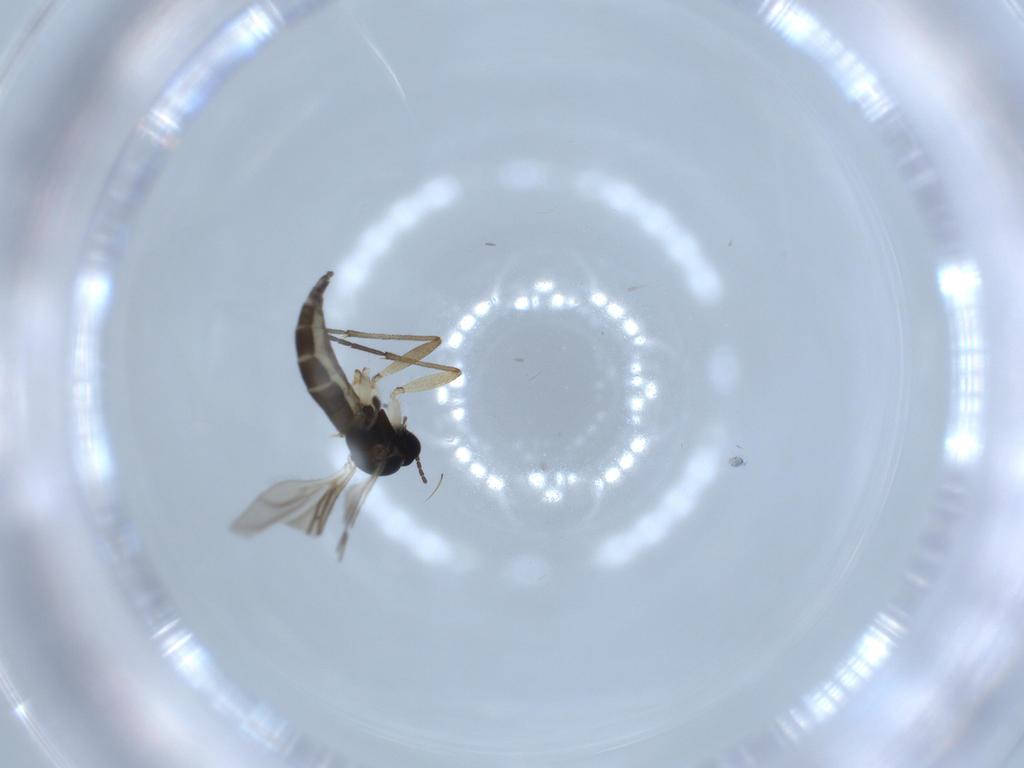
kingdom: Animalia
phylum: Arthropoda
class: Insecta
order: Diptera
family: Sciaridae
